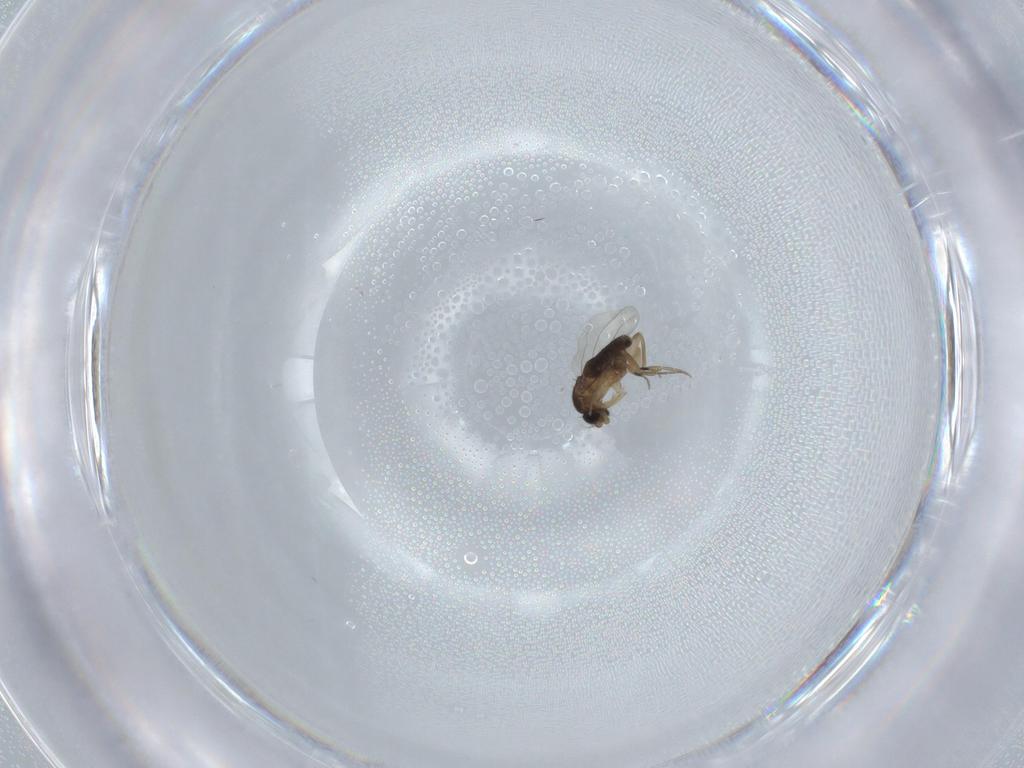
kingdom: Animalia
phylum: Arthropoda
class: Insecta
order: Diptera
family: Phoridae
